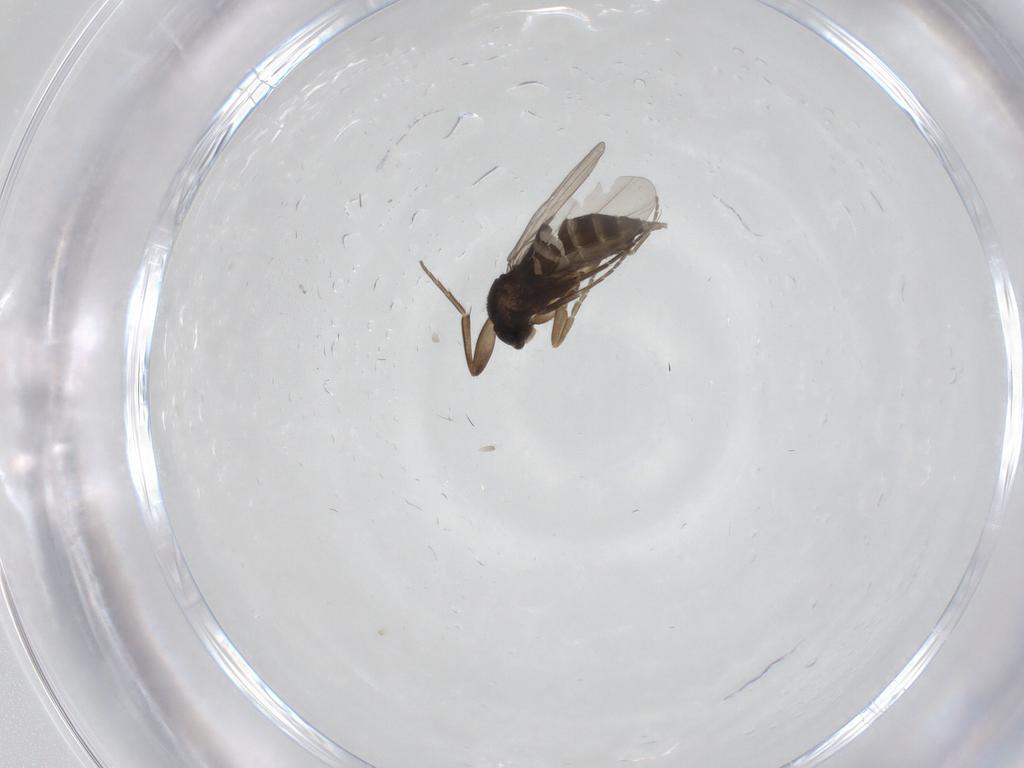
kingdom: Animalia
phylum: Arthropoda
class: Insecta
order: Diptera
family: Phoridae
